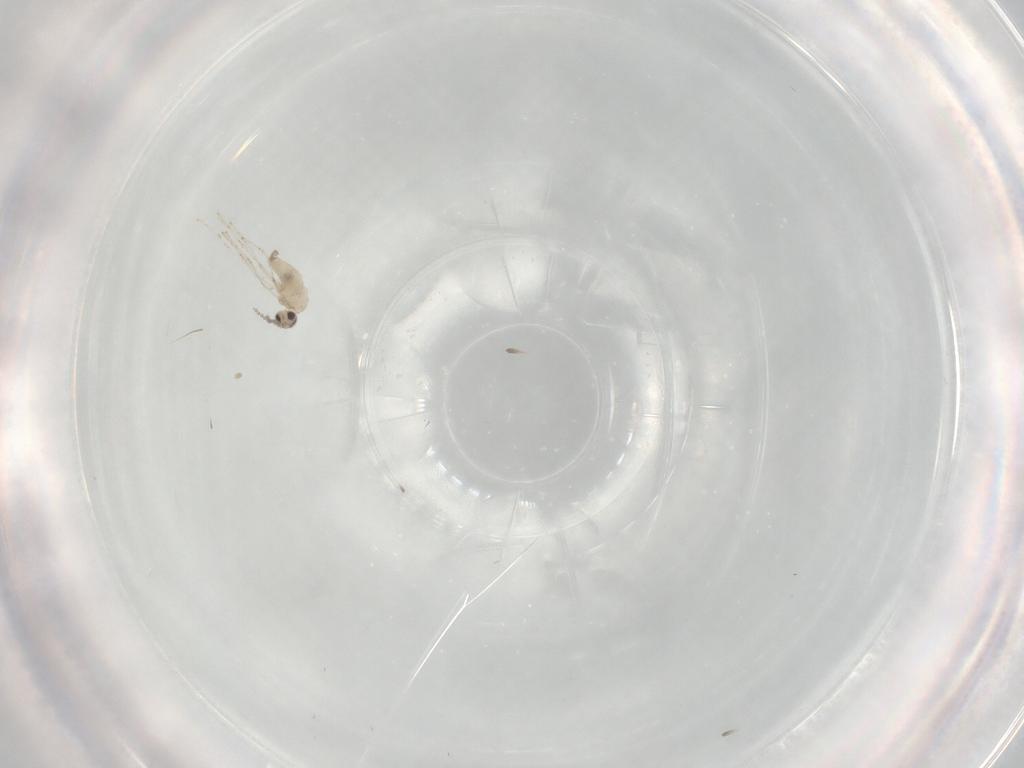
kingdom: Animalia
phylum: Arthropoda
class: Insecta
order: Diptera
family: Cecidomyiidae
